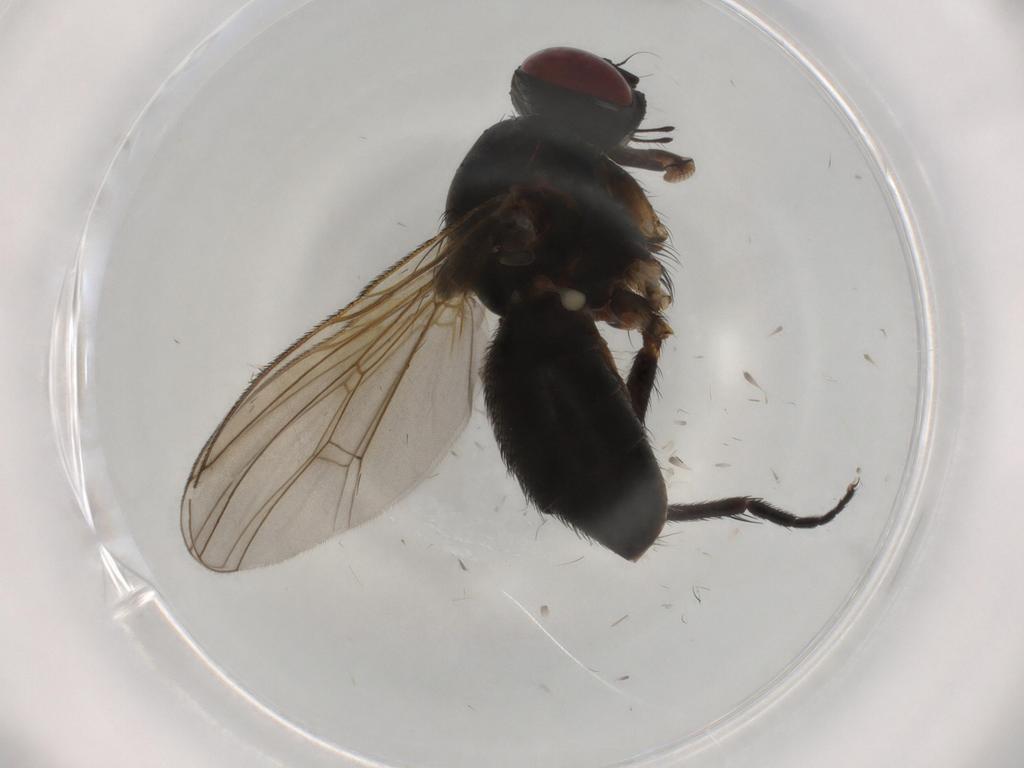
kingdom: Animalia
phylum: Arthropoda
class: Insecta
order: Diptera
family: Muscidae
